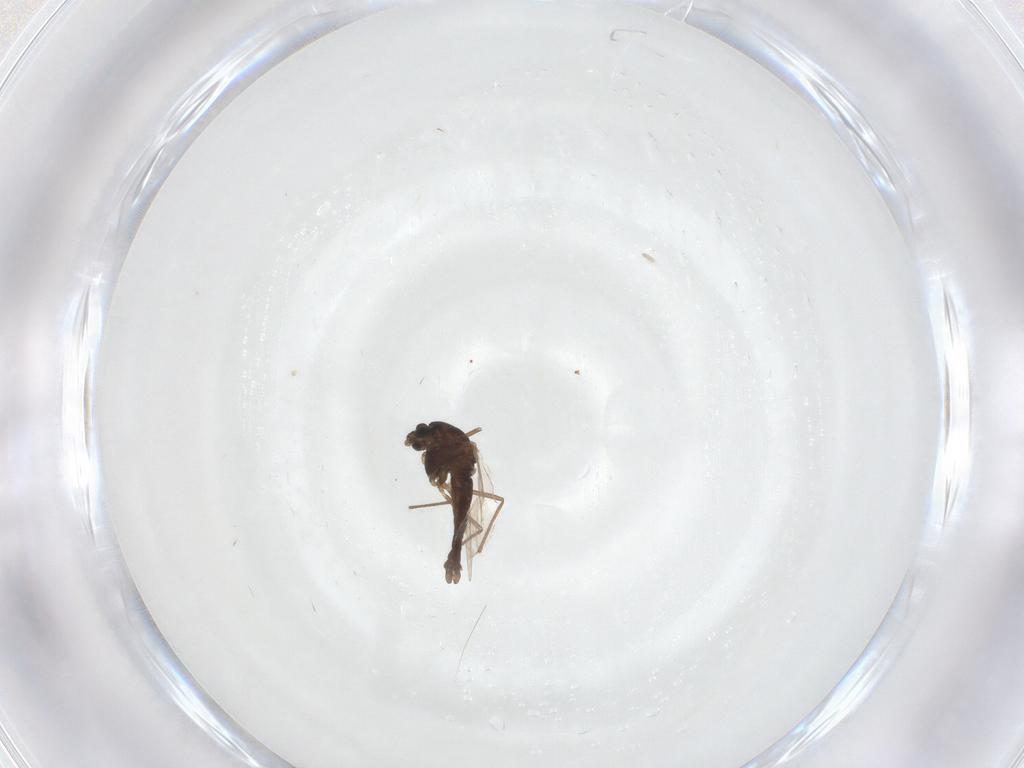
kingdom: Animalia
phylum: Arthropoda
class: Insecta
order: Diptera
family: Chironomidae
